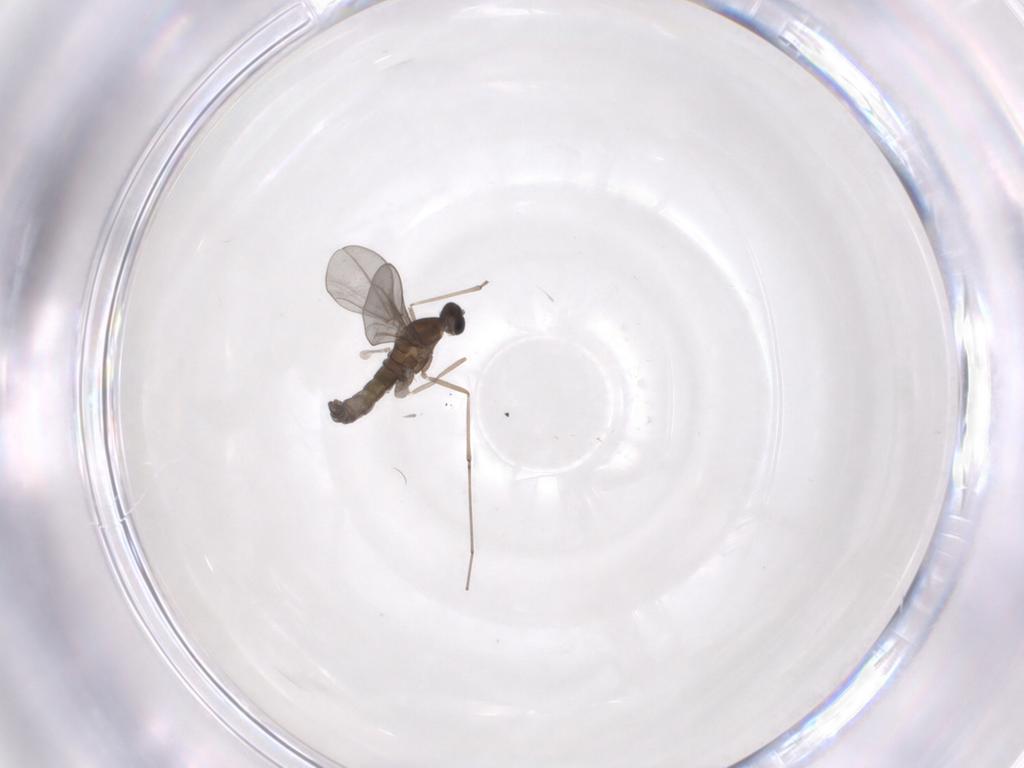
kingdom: Animalia
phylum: Arthropoda
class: Insecta
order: Diptera
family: Cecidomyiidae
